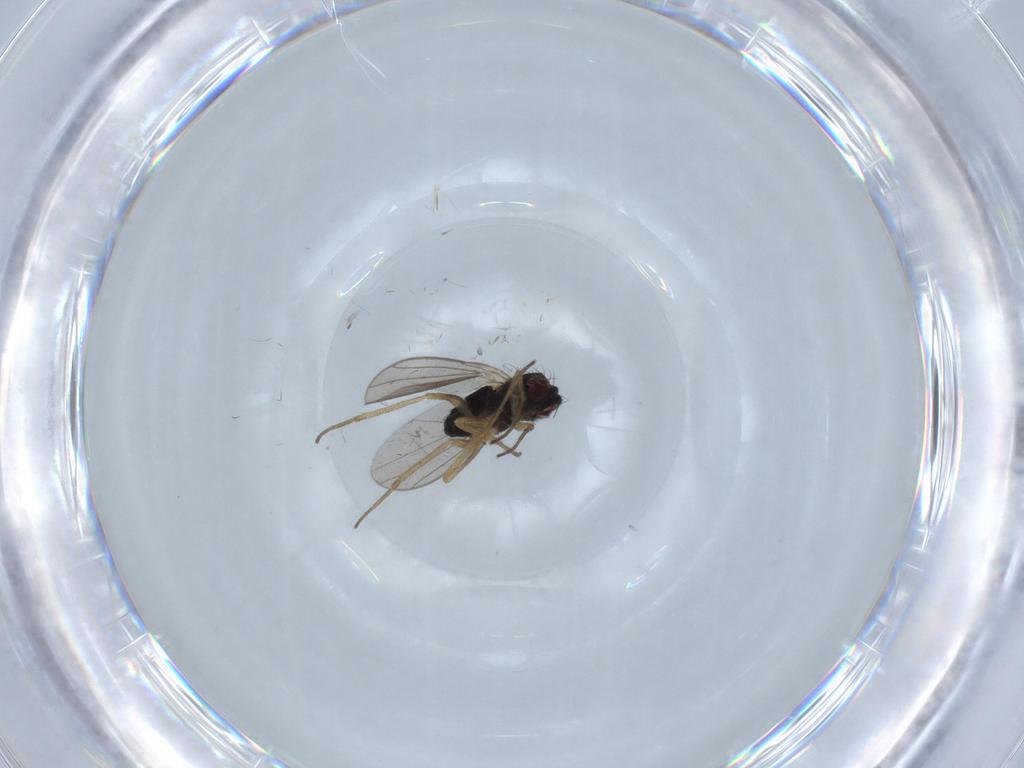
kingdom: Animalia
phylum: Arthropoda
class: Insecta
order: Diptera
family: Dolichopodidae
